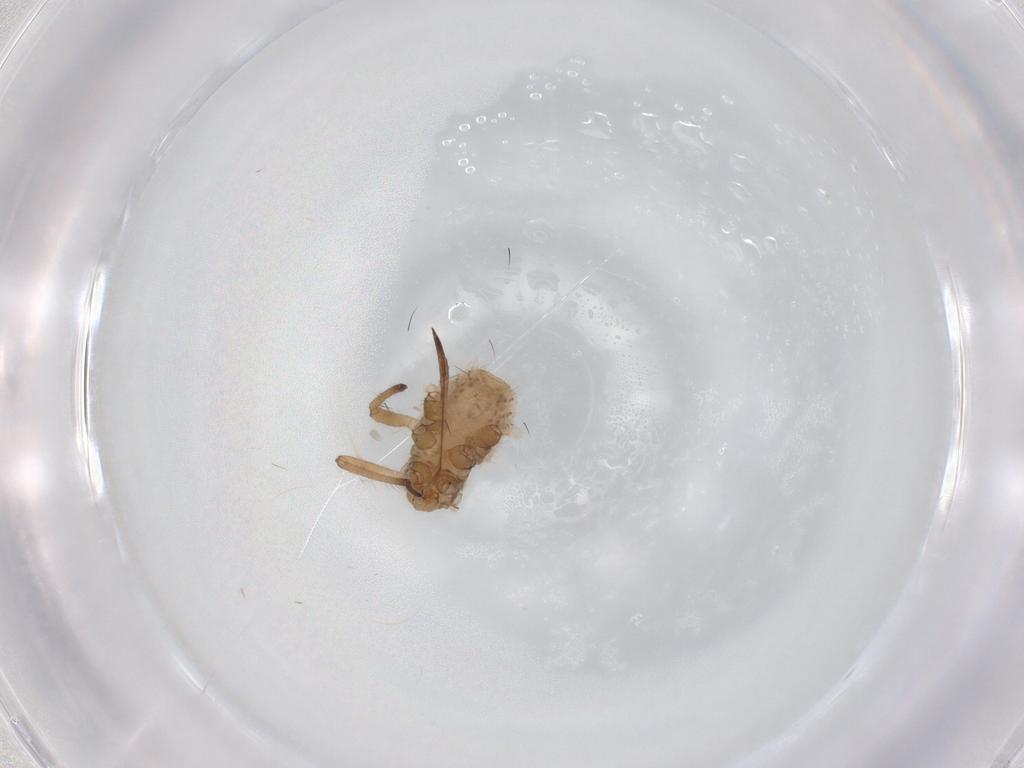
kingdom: Animalia
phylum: Arthropoda
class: Insecta
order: Hemiptera
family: Aphididae
